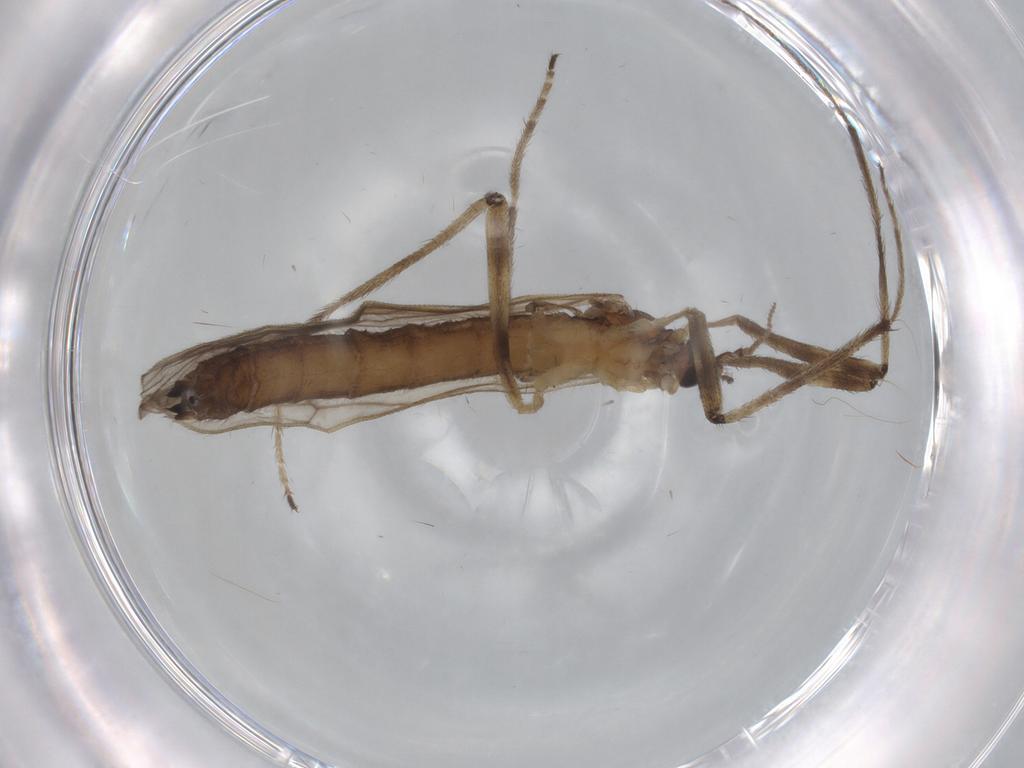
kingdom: Animalia
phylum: Arthropoda
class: Insecta
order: Diptera
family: Limoniidae
